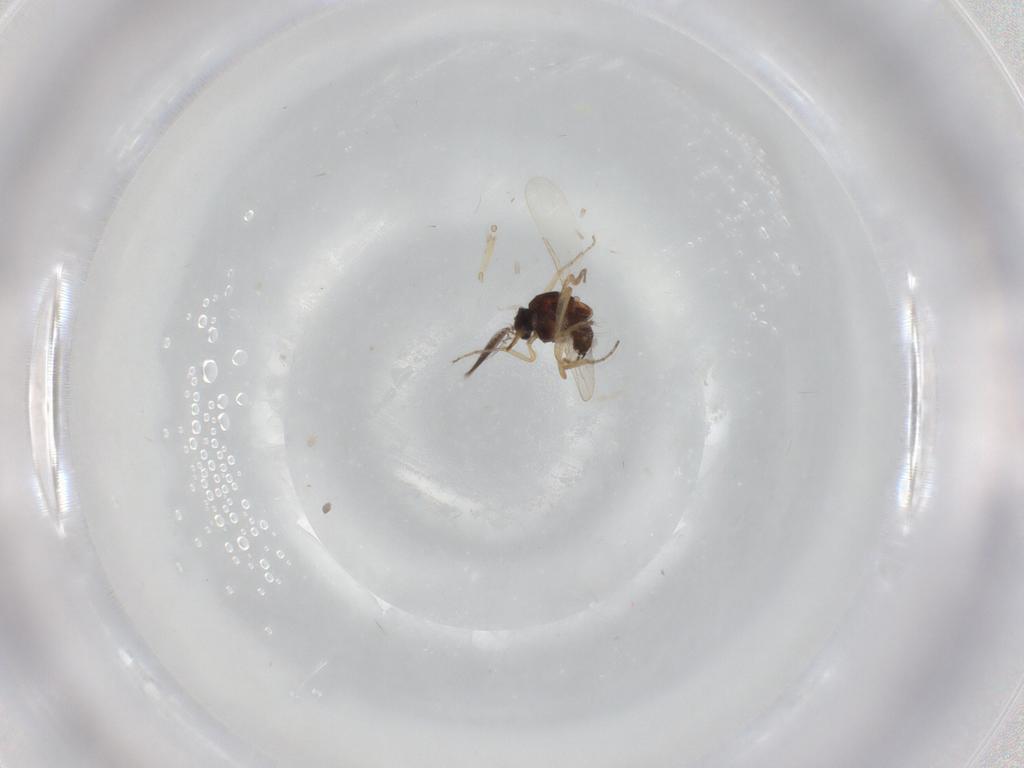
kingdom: Animalia
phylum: Arthropoda
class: Insecta
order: Diptera
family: Ceratopogonidae
